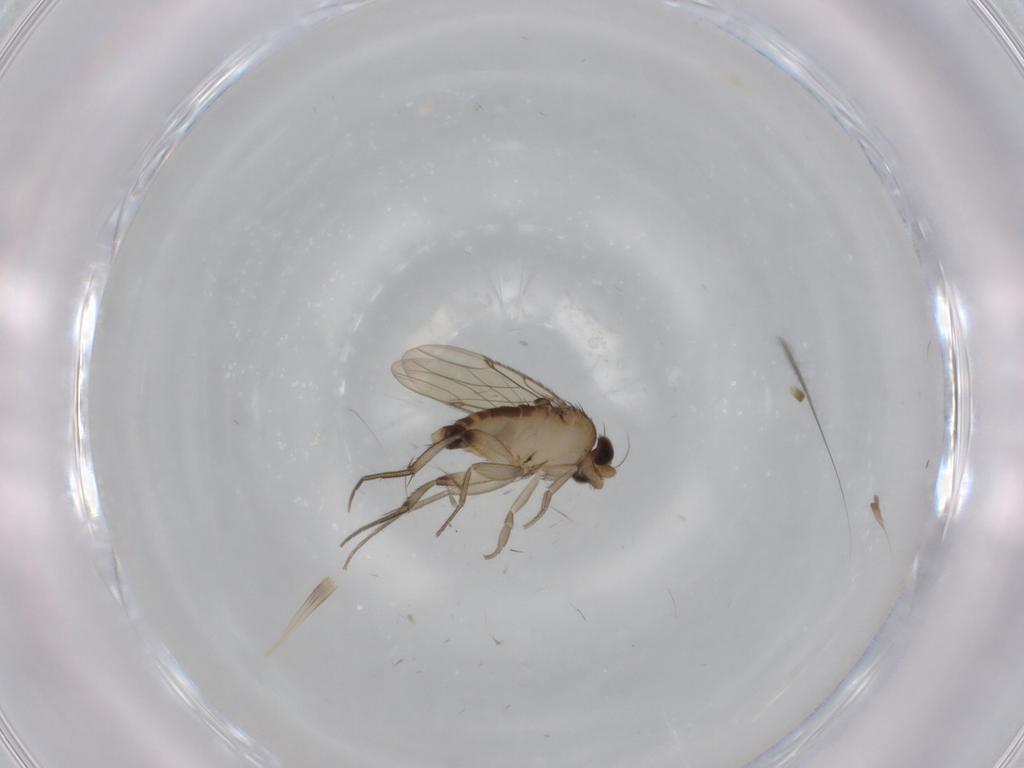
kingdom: Animalia
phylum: Arthropoda
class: Insecta
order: Diptera
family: Phoridae
